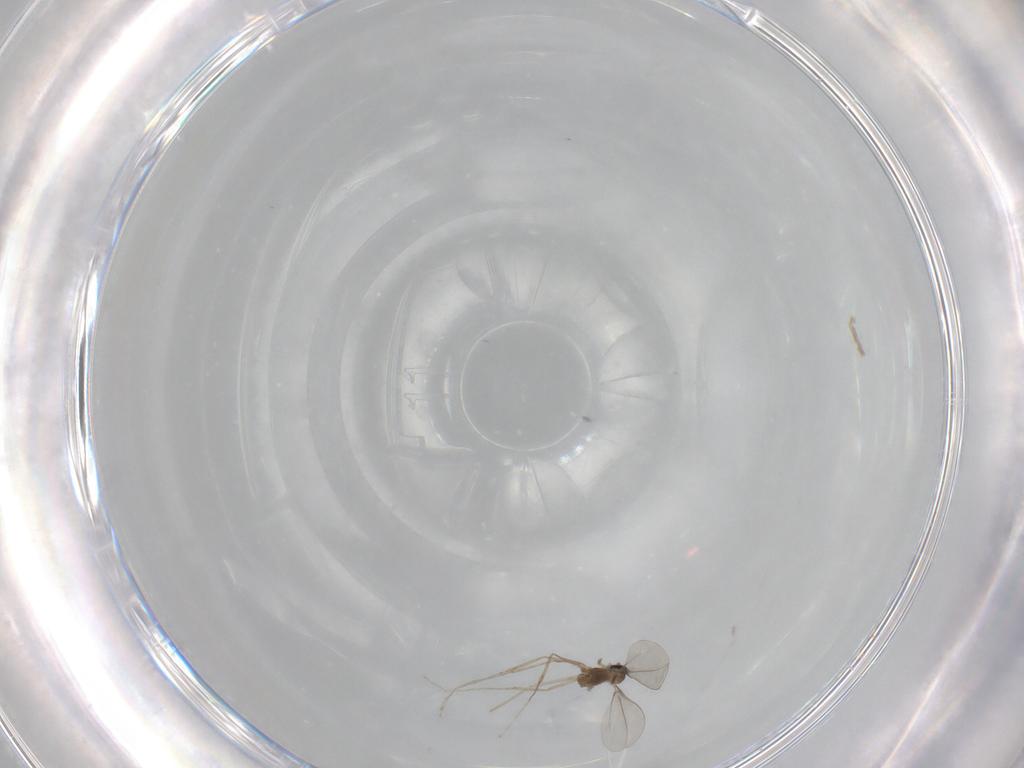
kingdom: Animalia
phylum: Arthropoda
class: Insecta
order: Diptera
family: Cecidomyiidae
